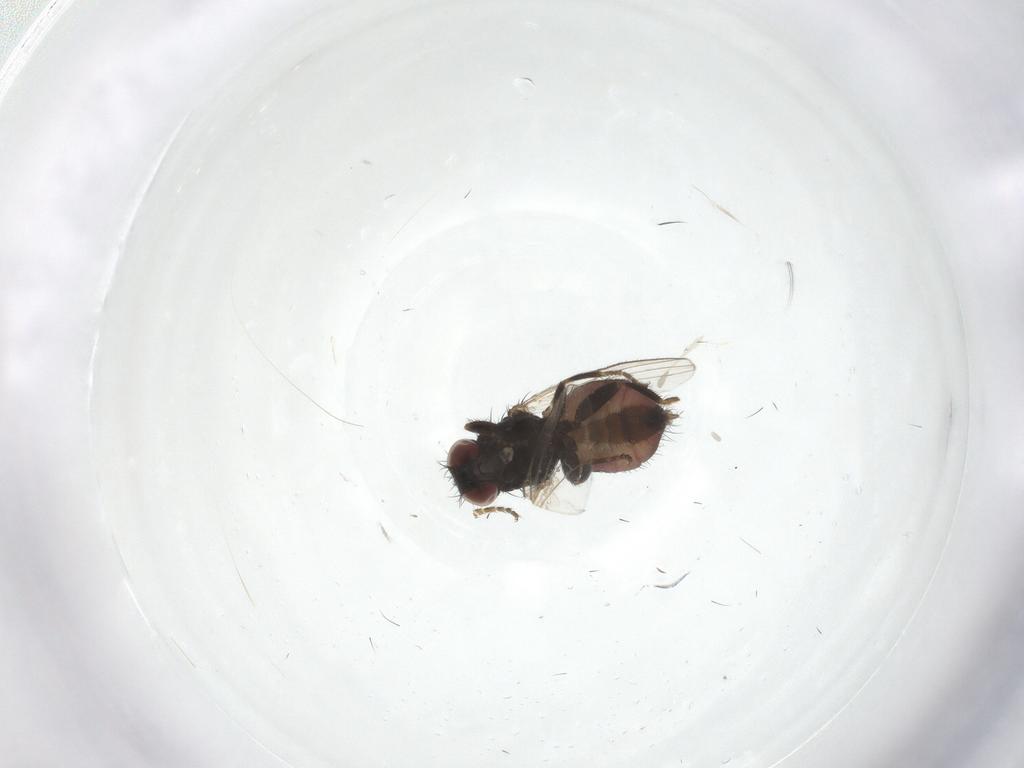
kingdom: Animalia
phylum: Arthropoda
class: Insecta
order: Diptera
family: Milichiidae
